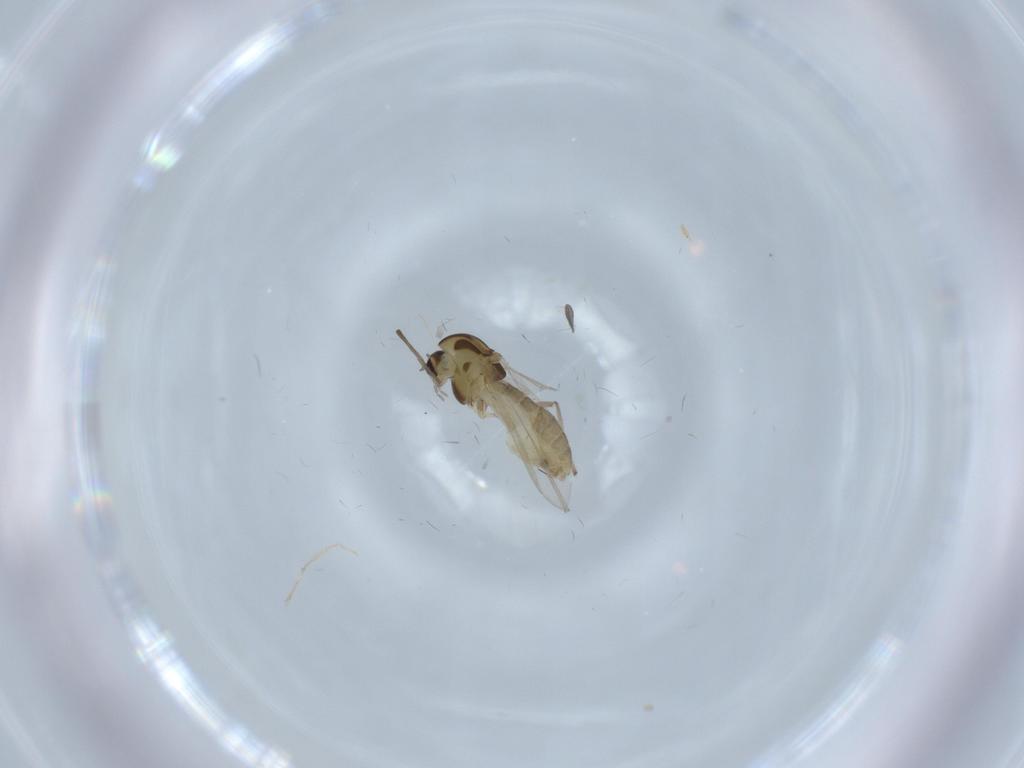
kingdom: Animalia
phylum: Arthropoda
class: Insecta
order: Diptera
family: Chironomidae
